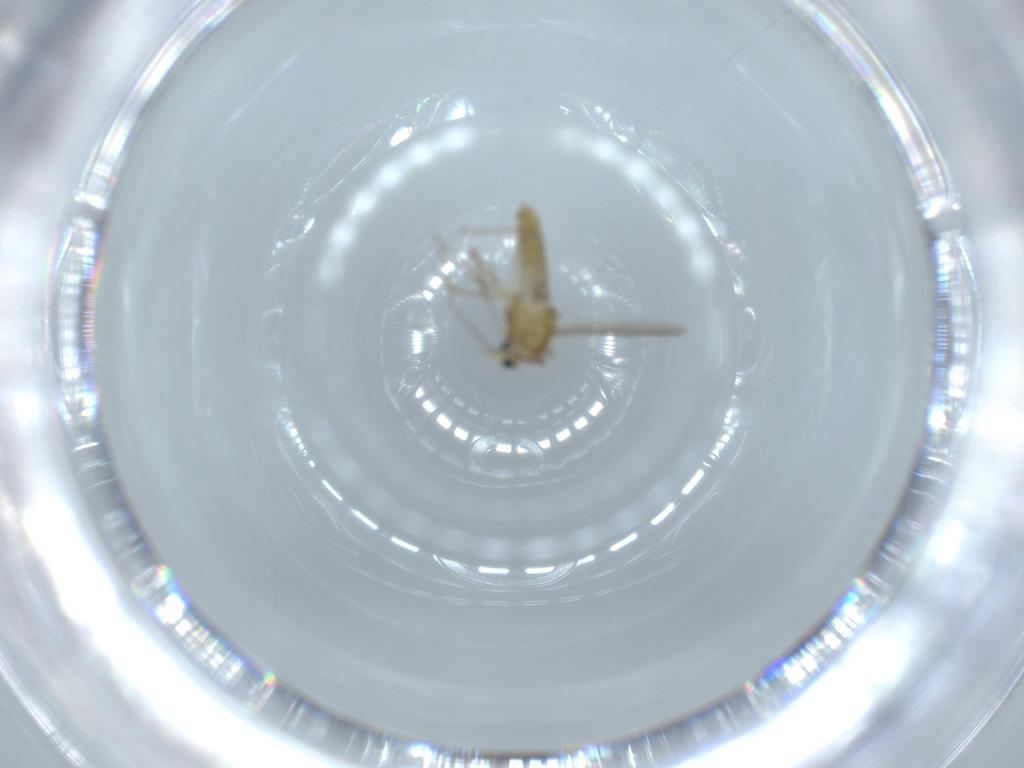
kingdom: Animalia
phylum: Arthropoda
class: Insecta
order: Diptera
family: Chironomidae
